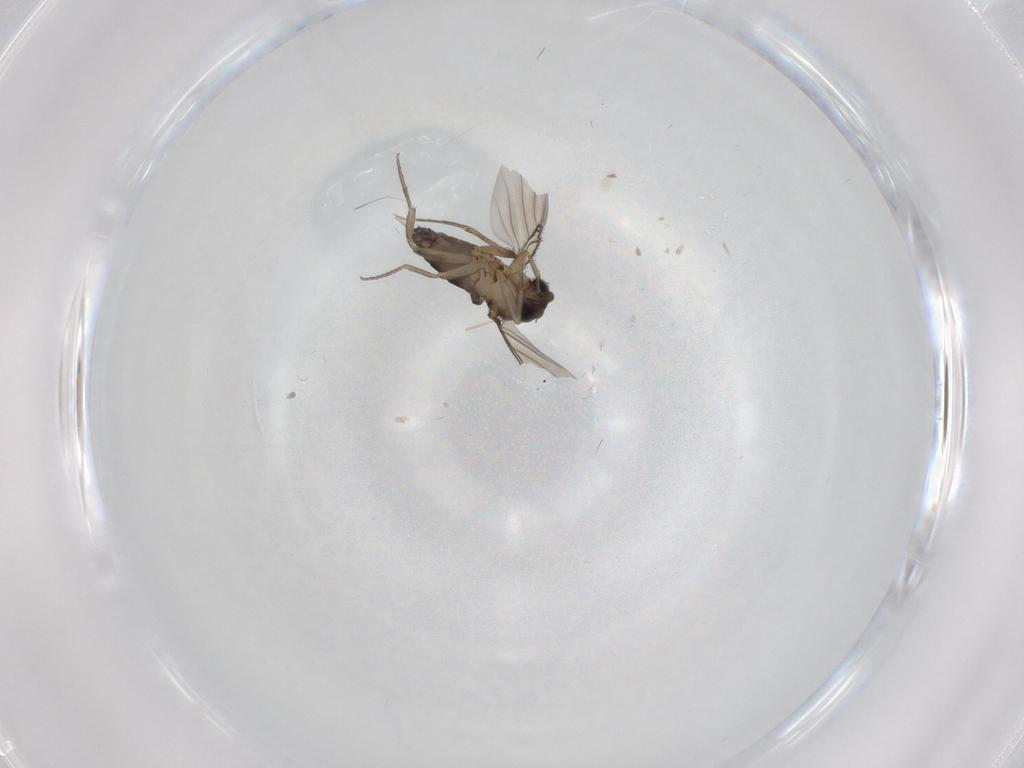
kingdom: Animalia
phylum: Arthropoda
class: Insecta
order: Diptera
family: Phoridae
